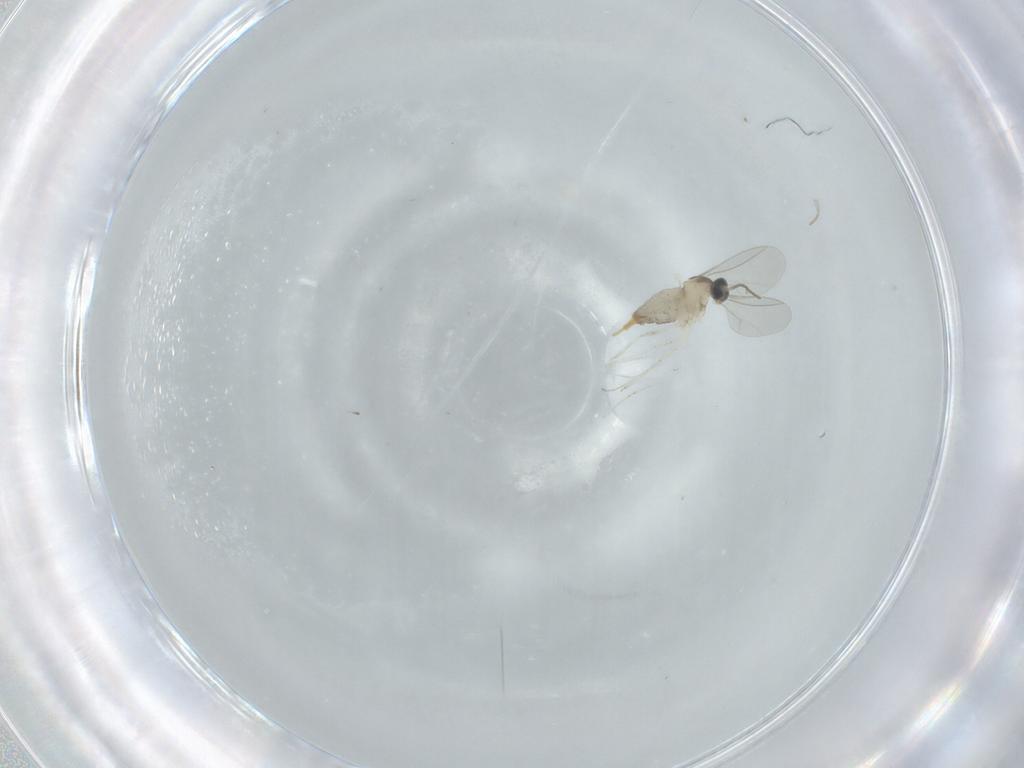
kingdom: Animalia
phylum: Arthropoda
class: Insecta
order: Diptera
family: Cecidomyiidae
